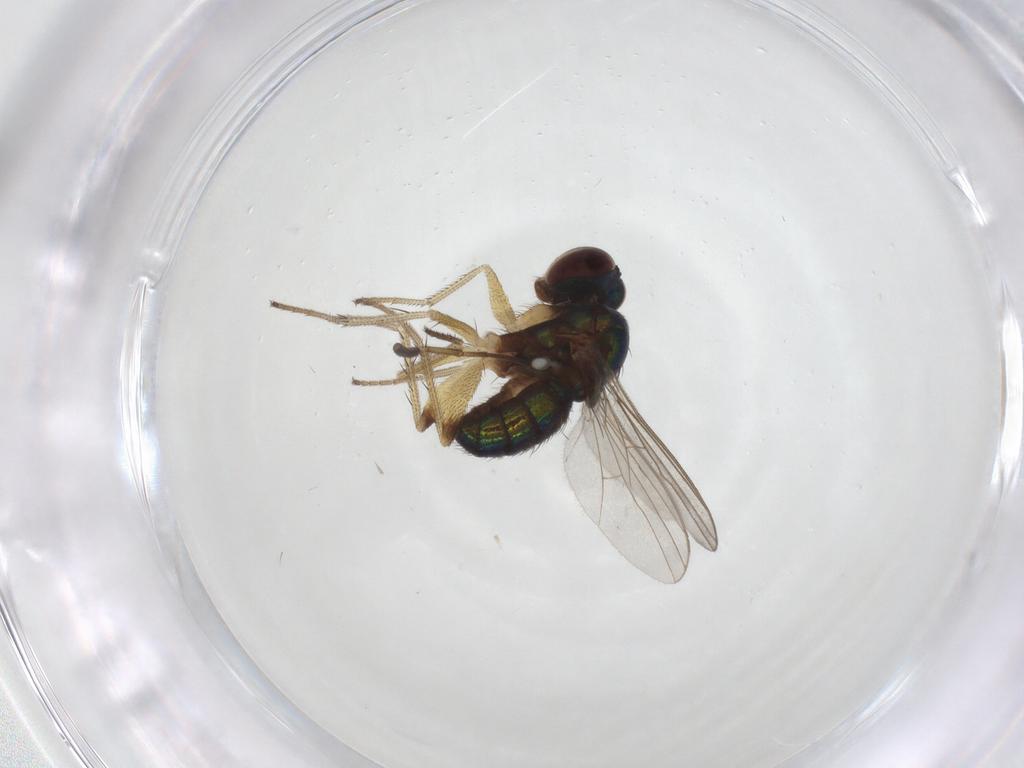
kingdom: Animalia
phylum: Arthropoda
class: Insecta
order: Diptera
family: Dolichopodidae
